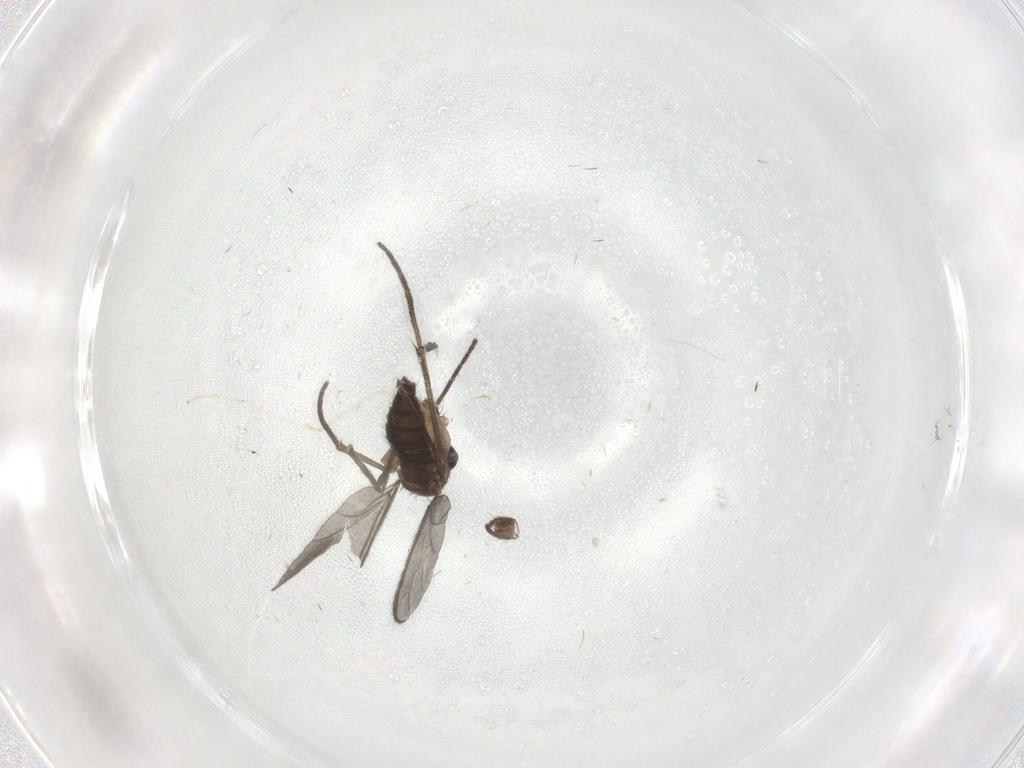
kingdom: Animalia
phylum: Arthropoda
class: Insecta
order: Diptera
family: Sciaridae
